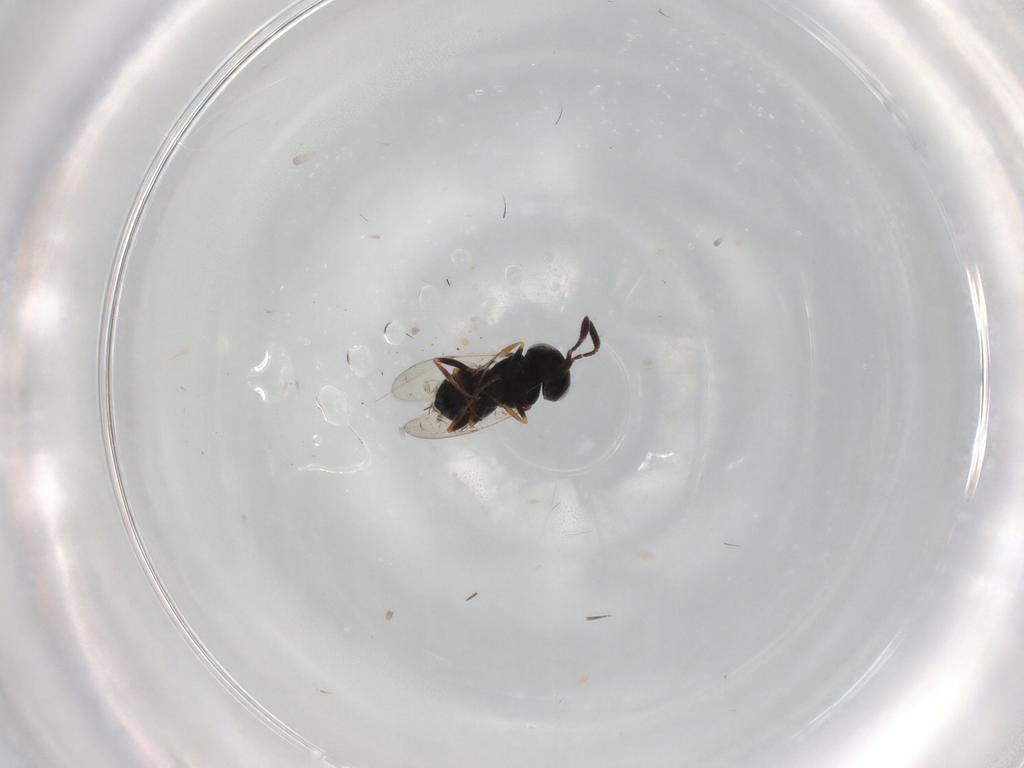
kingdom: Animalia
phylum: Arthropoda
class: Insecta
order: Coleoptera
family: Curculionidae
